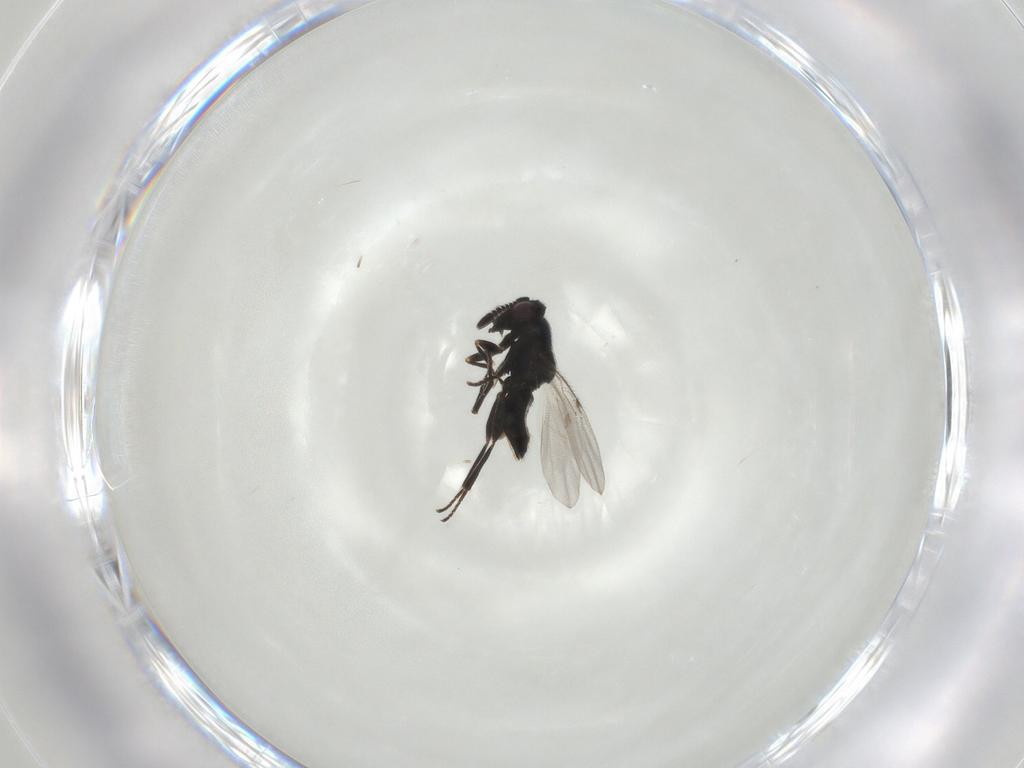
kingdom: Animalia
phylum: Arthropoda
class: Insecta
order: Hymenoptera
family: Encyrtidae
